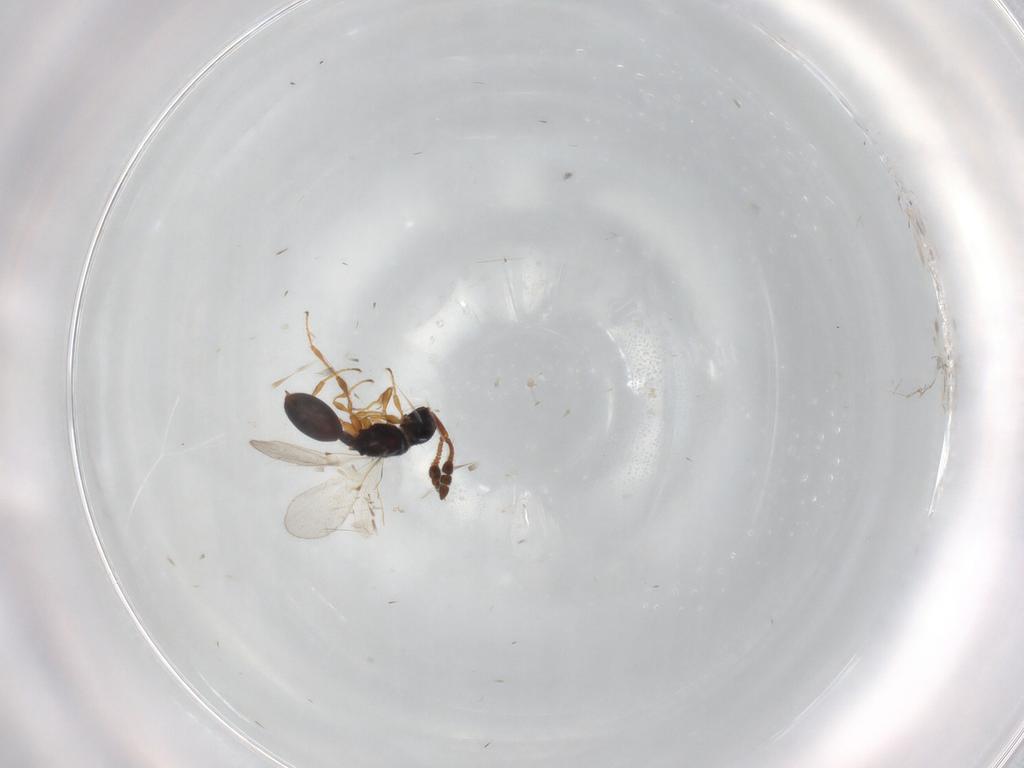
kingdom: Animalia
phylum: Arthropoda
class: Insecta
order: Hymenoptera
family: Diapriidae
